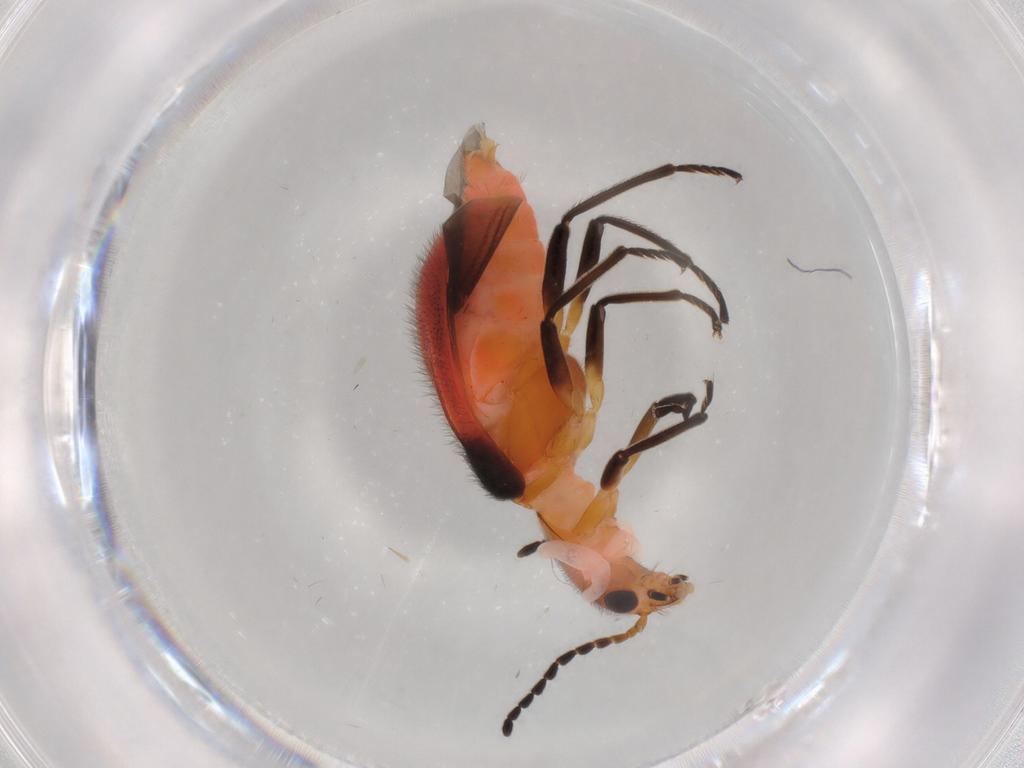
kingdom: Animalia
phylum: Arthropoda
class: Insecta
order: Coleoptera
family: Melyridae
